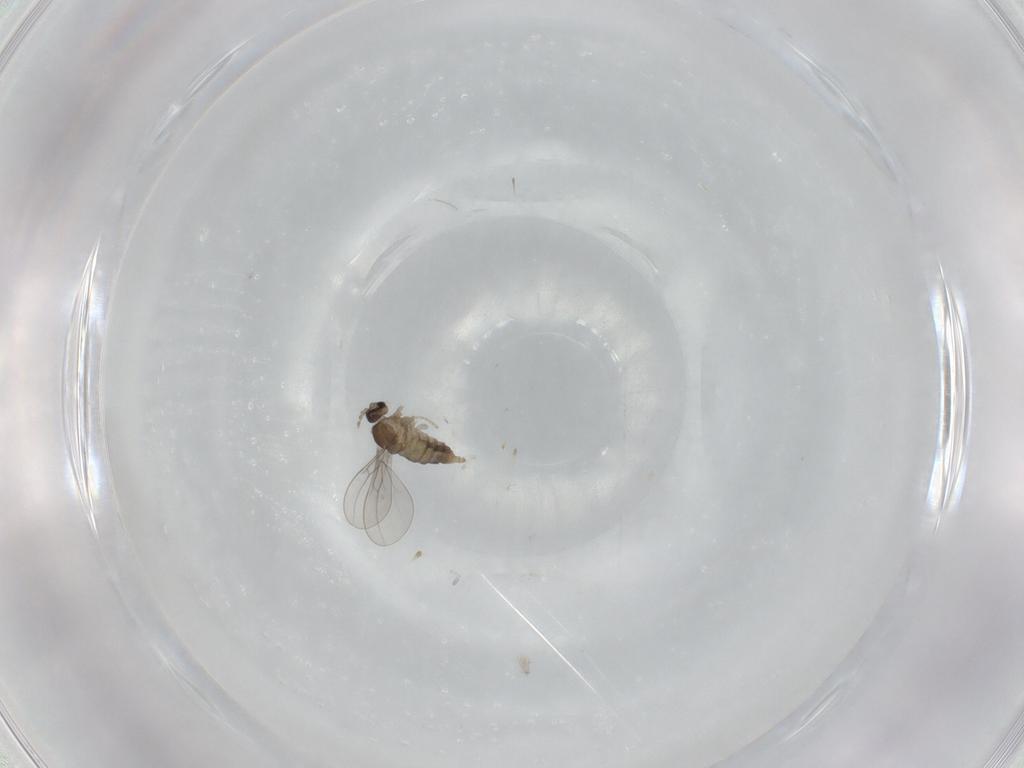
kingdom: Animalia
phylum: Arthropoda
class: Insecta
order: Diptera
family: Cecidomyiidae
